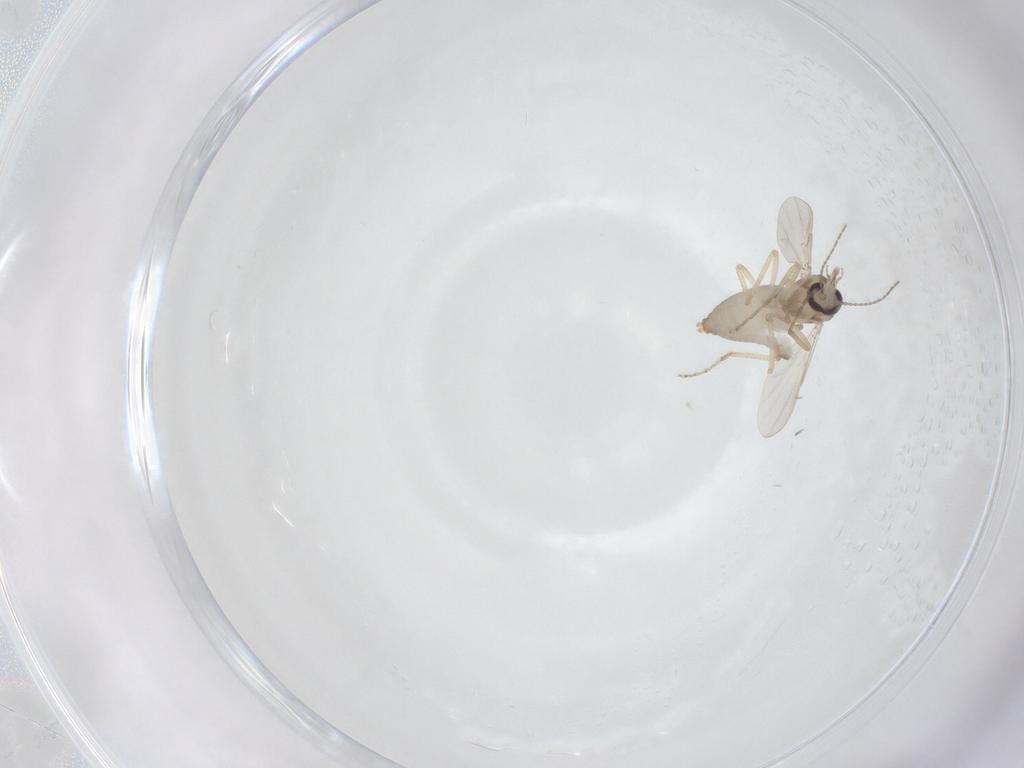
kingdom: Animalia
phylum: Arthropoda
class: Insecta
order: Diptera
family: Ceratopogonidae
